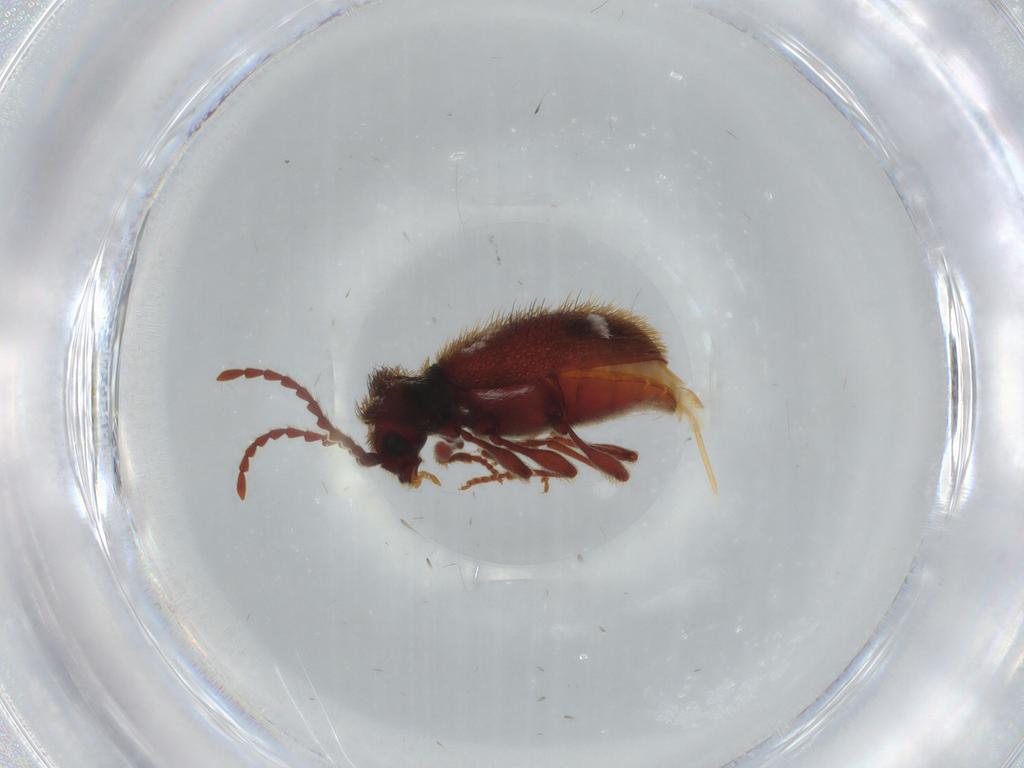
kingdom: Animalia
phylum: Arthropoda
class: Insecta
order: Coleoptera
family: Ptinidae
